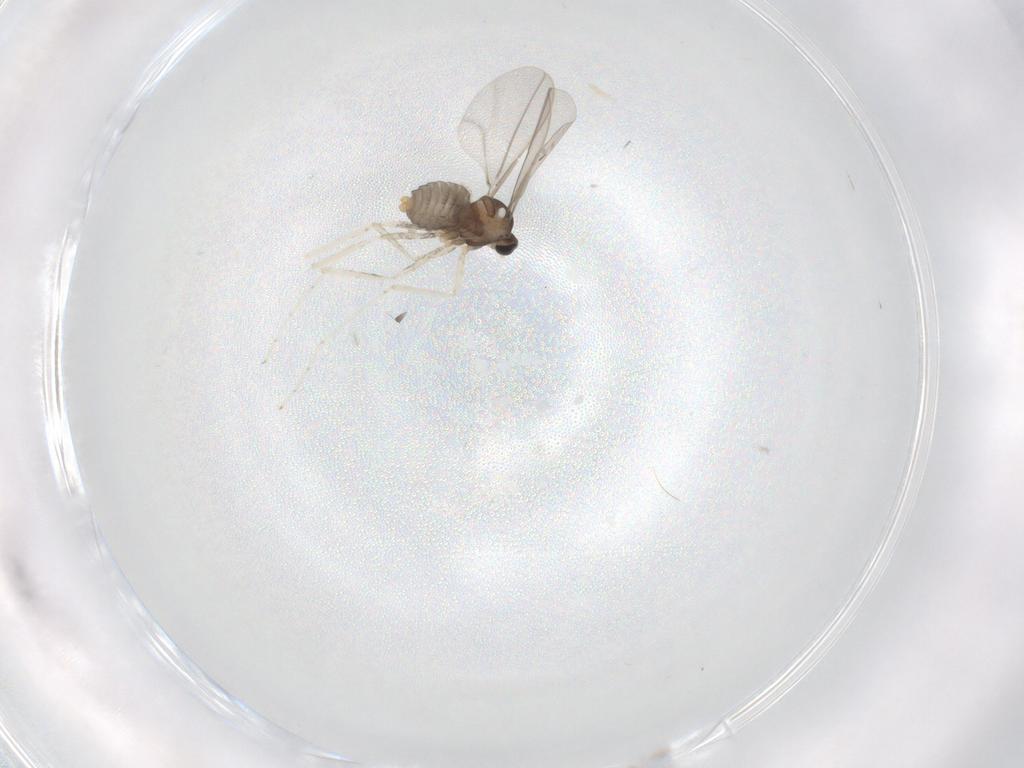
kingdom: Animalia
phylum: Arthropoda
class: Insecta
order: Diptera
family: Cecidomyiidae
